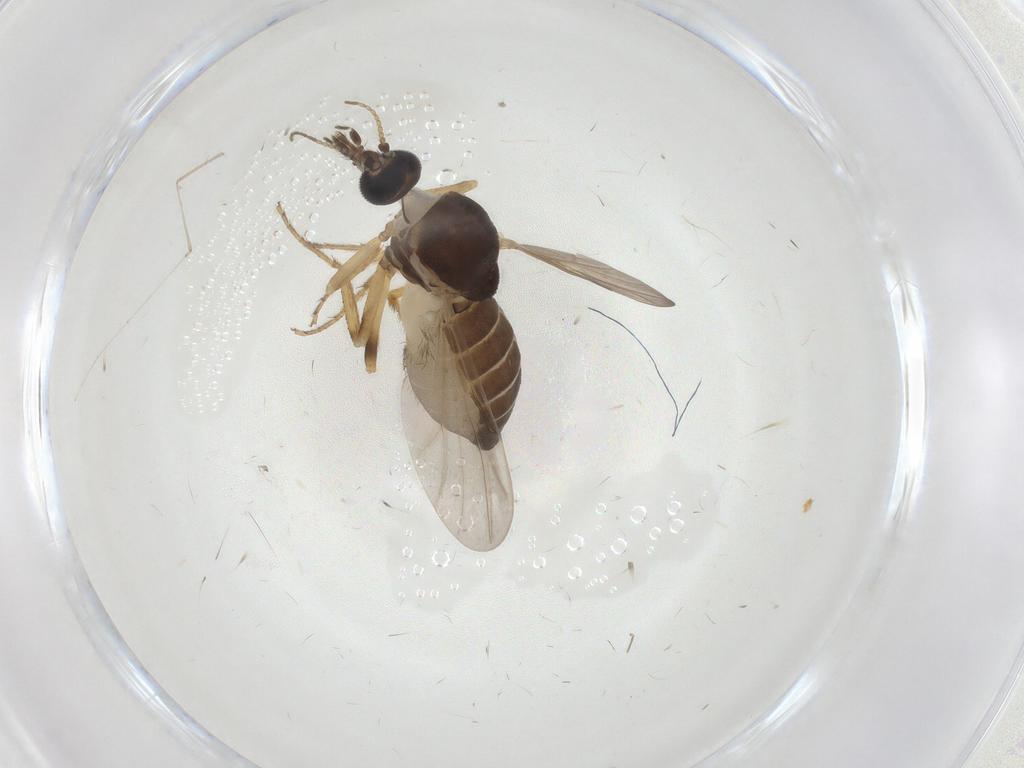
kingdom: Animalia
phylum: Arthropoda
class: Insecta
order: Diptera
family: Ceratopogonidae
